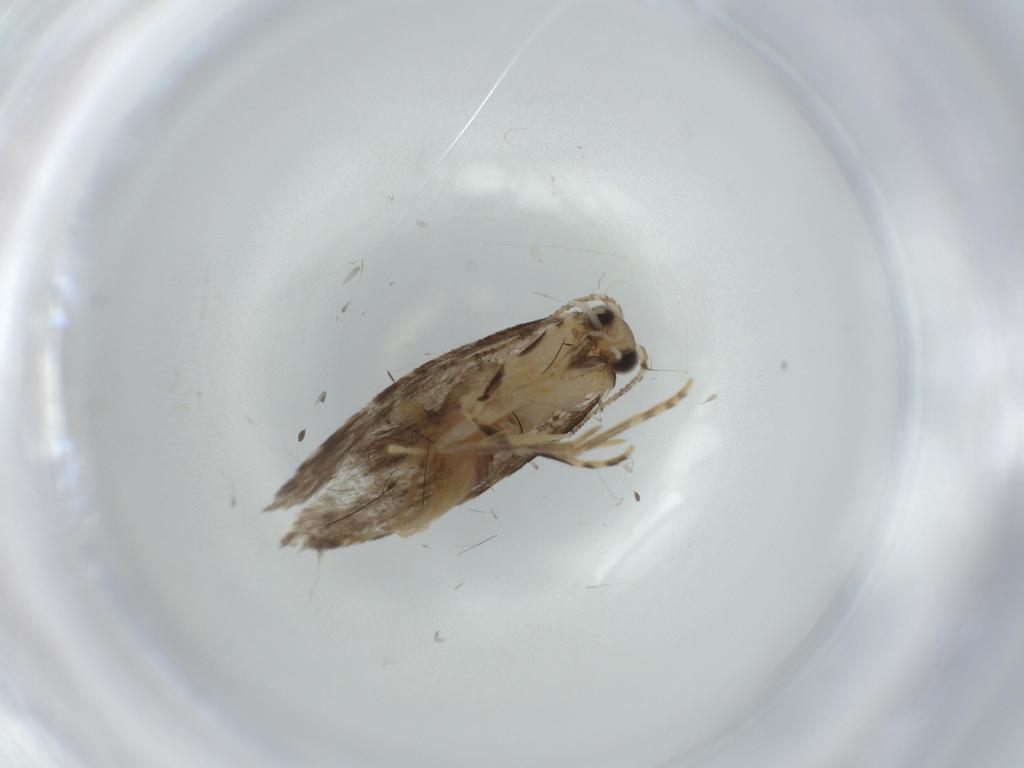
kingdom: Animalia
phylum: Arthropoda
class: Insecta
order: Lepidoptera
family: Tineidae
